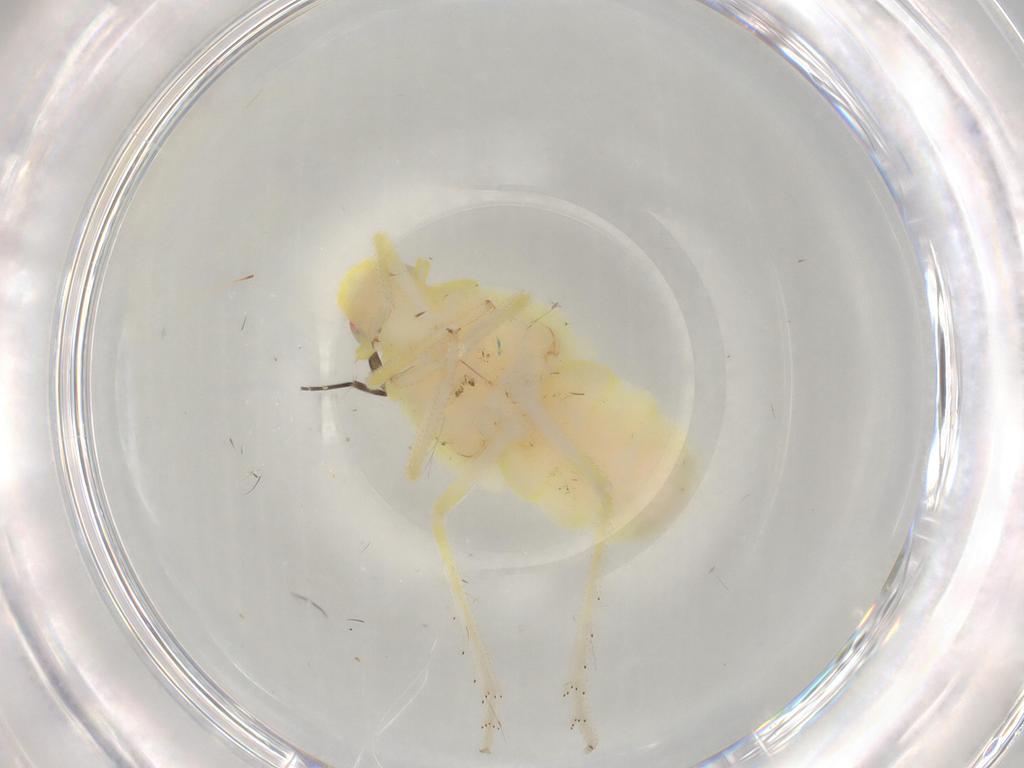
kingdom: Animalia
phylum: Arthropoda
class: Insecta
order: Hemiptera
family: Tropiduchidae
